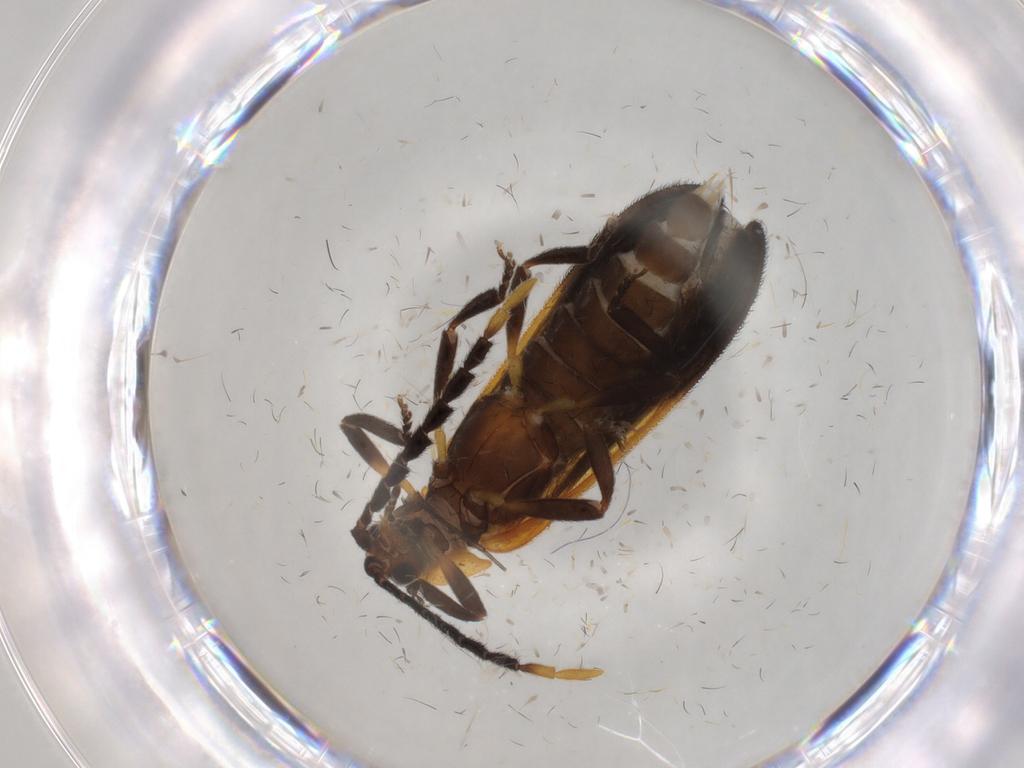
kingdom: Animalia
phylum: Arthropoda
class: Insecta
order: Coleoptera
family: Lycidae
